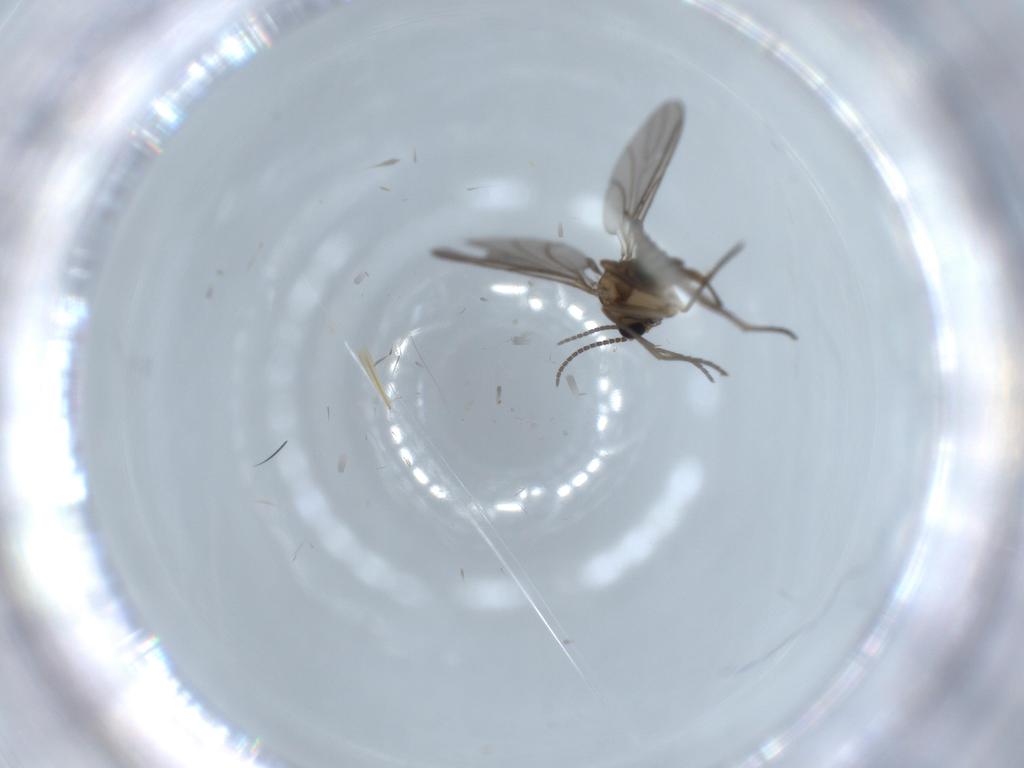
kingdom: Animalia
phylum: Arthropoda
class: Insecta
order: Diptera
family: Sciaridae
